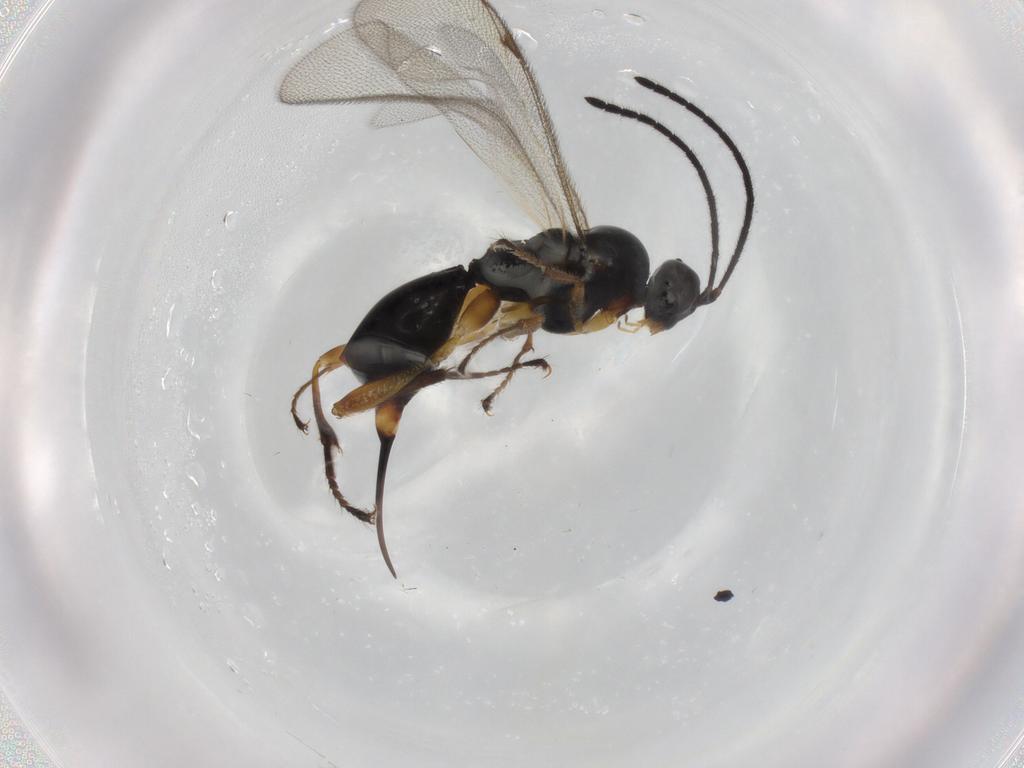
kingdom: Animalia
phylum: Arthropoda
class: Insecta
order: Hymenoptera
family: Proctotrupidae
